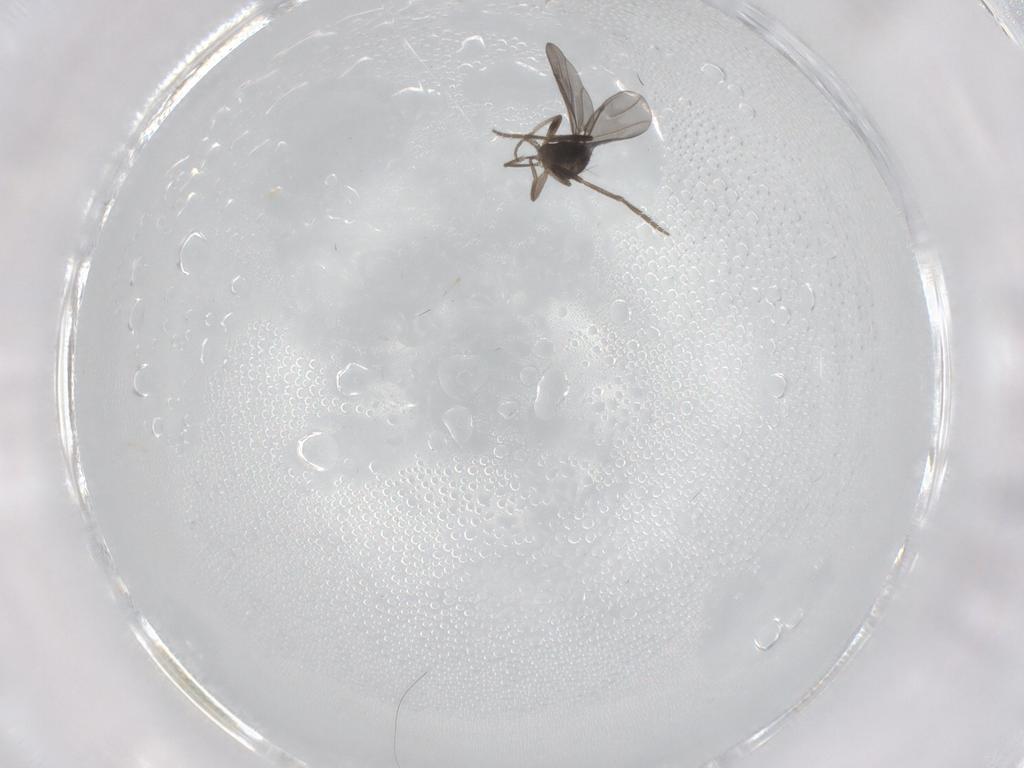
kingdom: Animalia
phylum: Arthropoda
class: Insecta
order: Diptera
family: Phoridae
